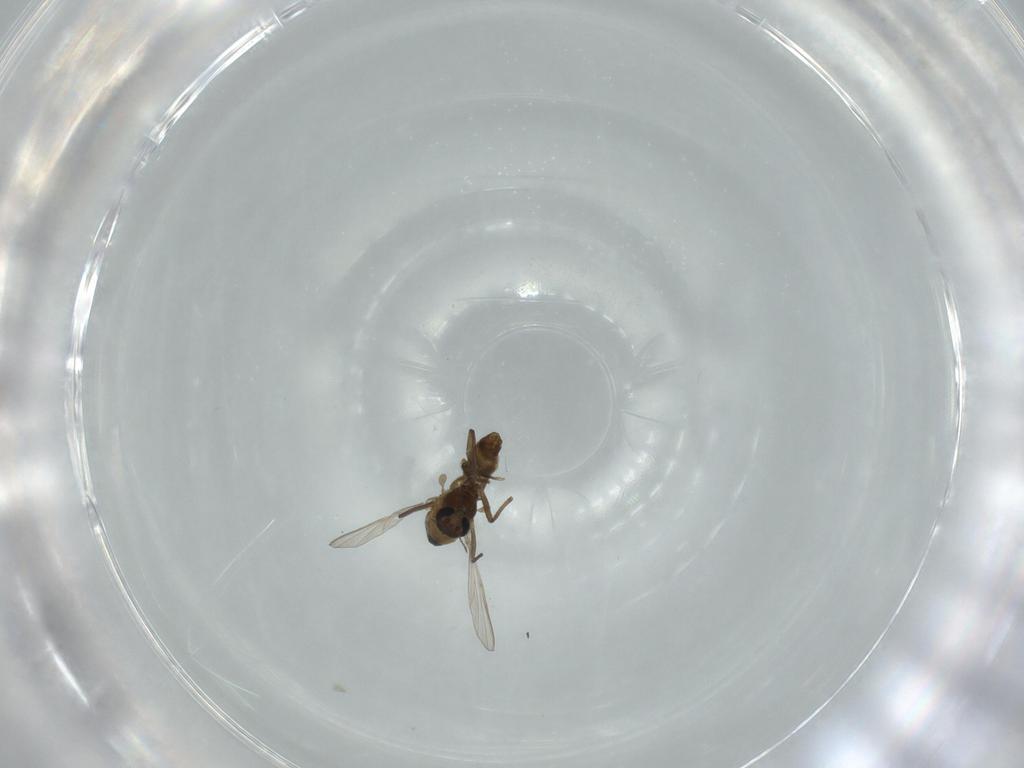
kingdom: Animalia
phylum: Arthropoda
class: Insecta
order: Diptera
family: Chironomidae
